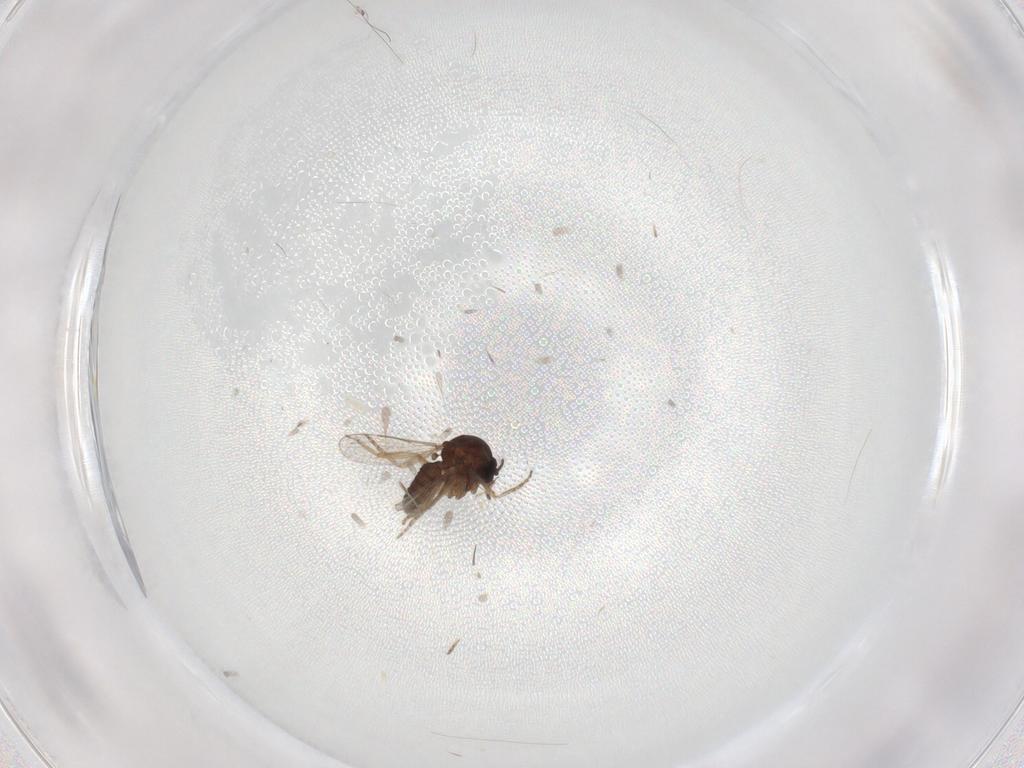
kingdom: Animalia
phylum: Arthropoda
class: Insecta
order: Diptera
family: Ceratopogonidae
